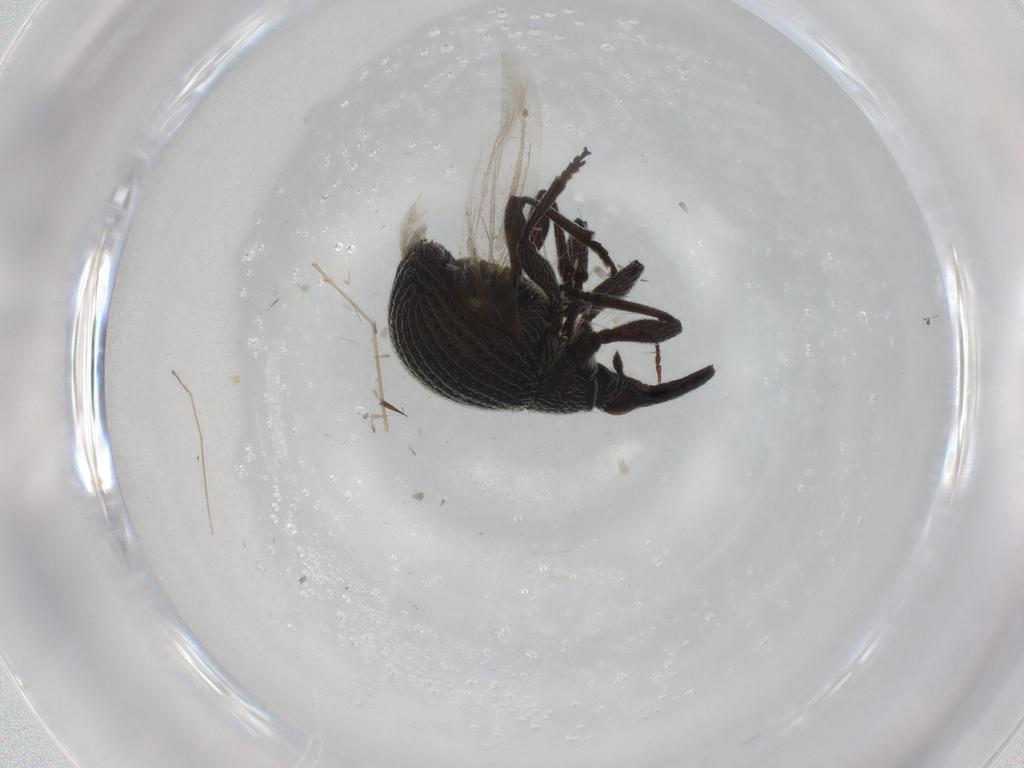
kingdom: Animalia
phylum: Arthropoda
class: Insecta
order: Coleoptera
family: Brentidae
